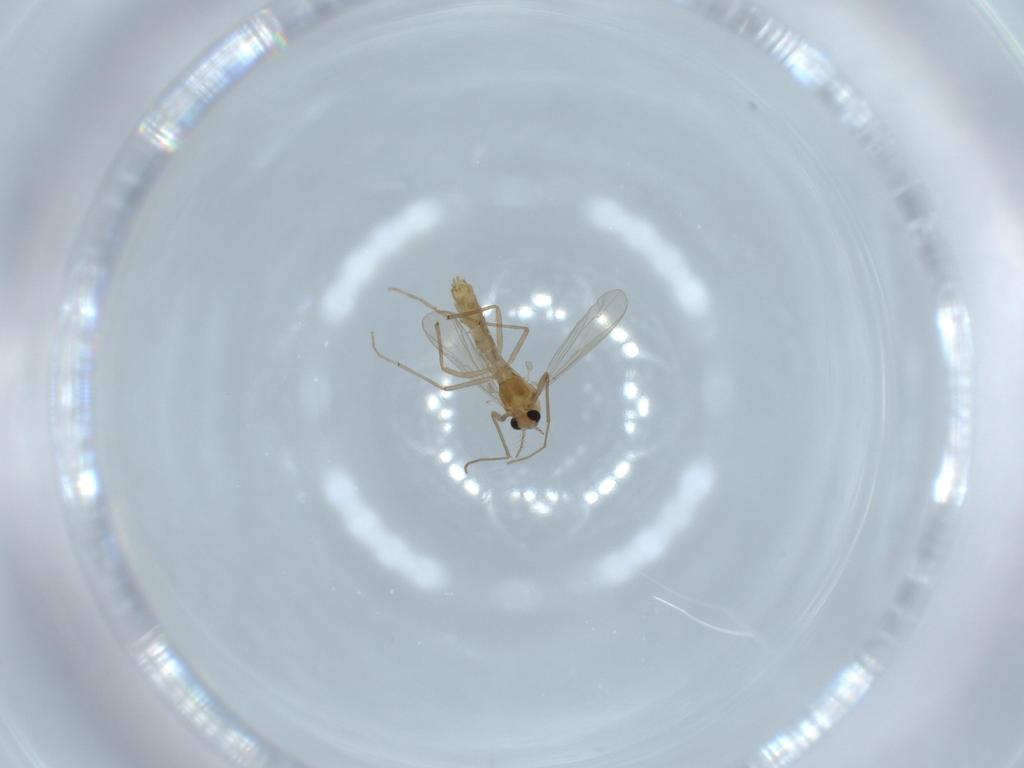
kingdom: Animalia
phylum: Arthropoda
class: Insecta
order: Diptera
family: Chironomidae
